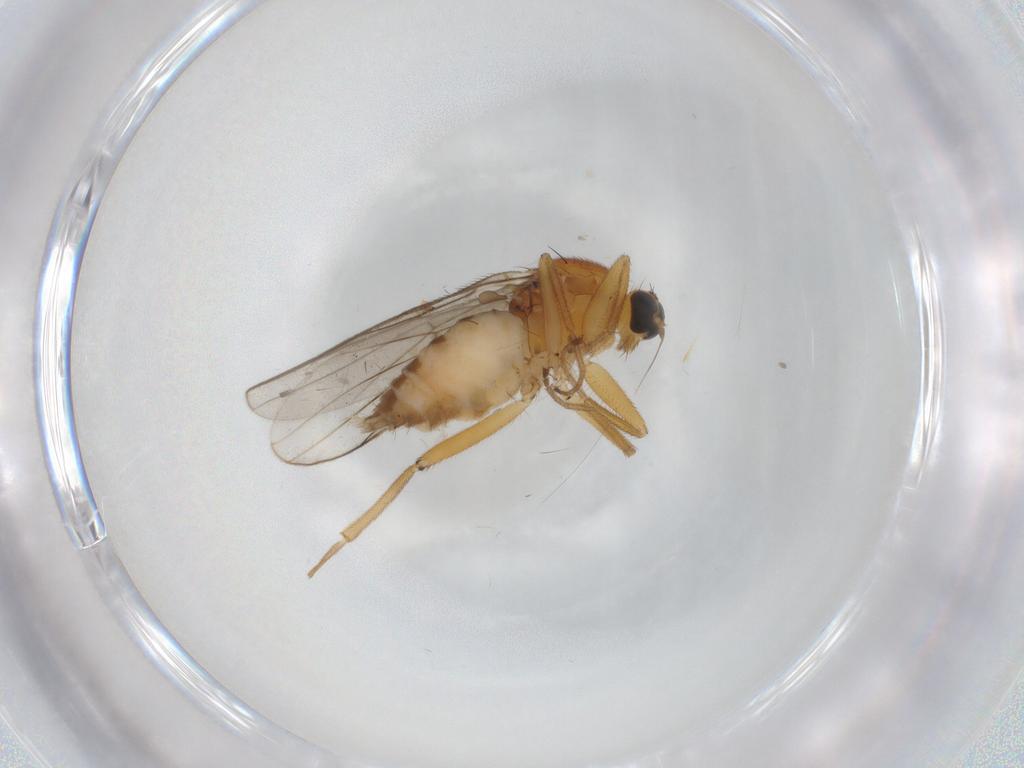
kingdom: Animalia
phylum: Arthropoda
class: Insecta
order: Diptera
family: Hybotidae
